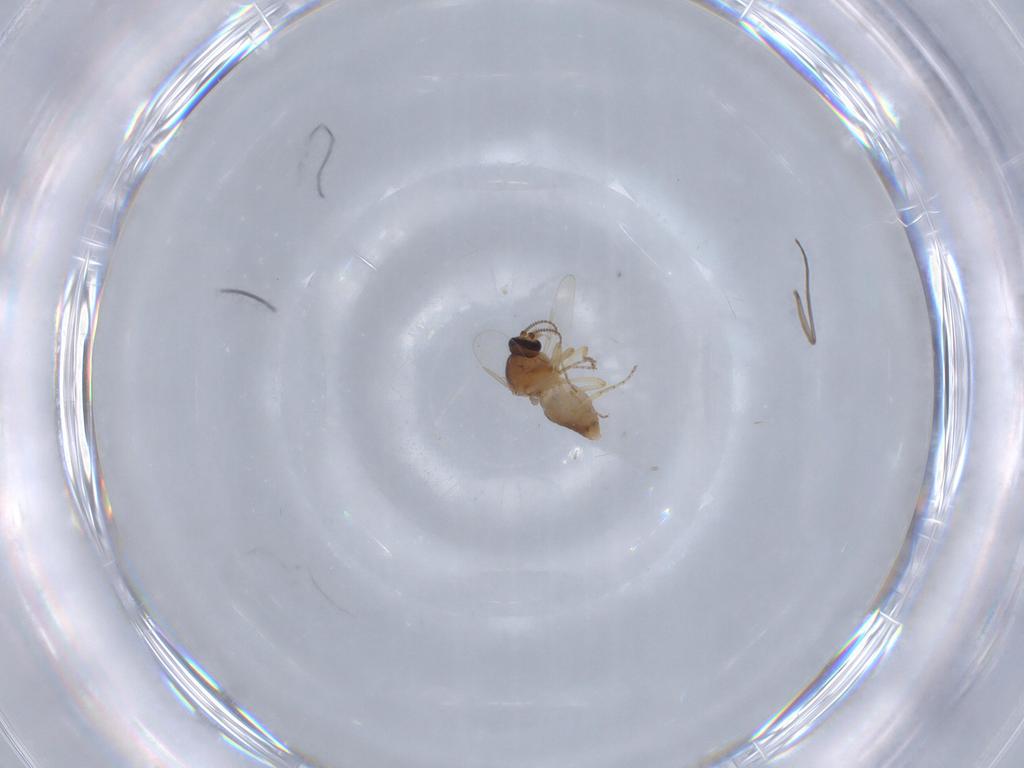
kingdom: Animalia
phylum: Arthropoda
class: Insecta
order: Diptera
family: Ceratopogonidae
